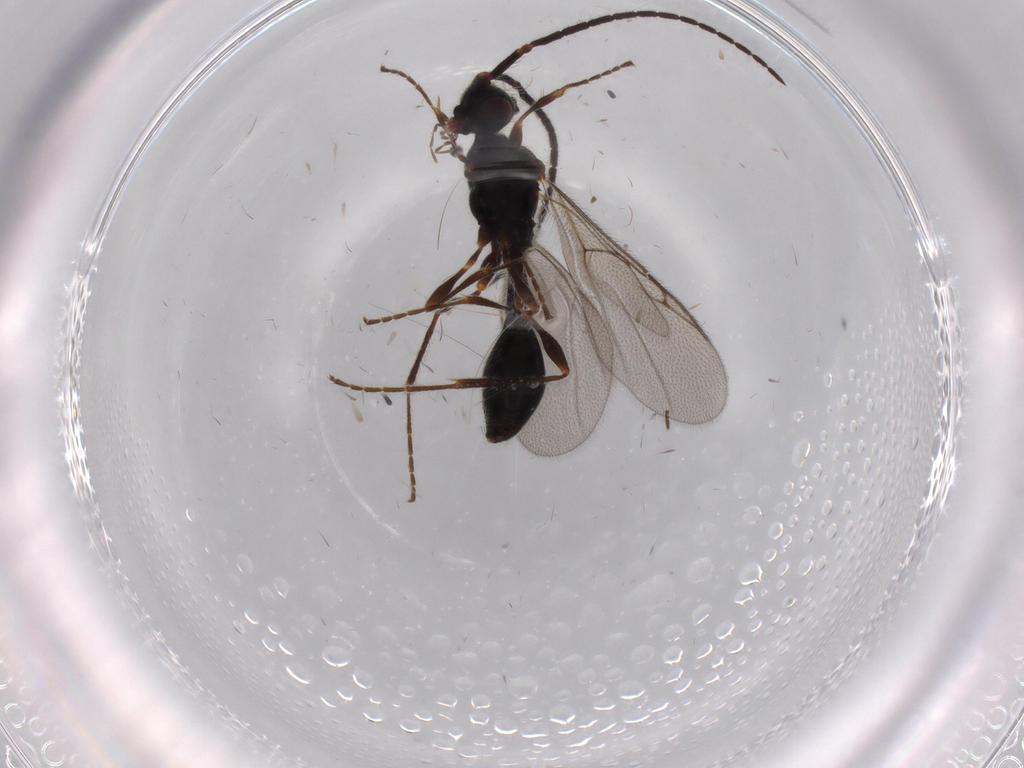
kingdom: Animalia
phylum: Arthropoda
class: Insecta
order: Hymenoptera
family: Diapriidae
